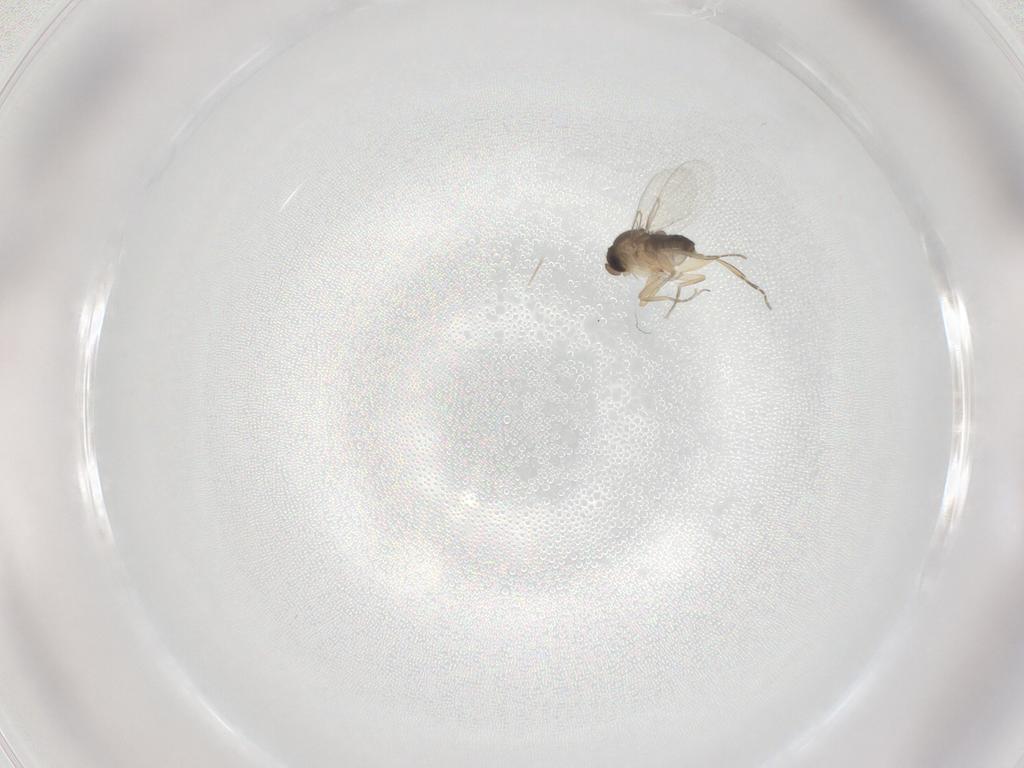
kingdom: Animalia
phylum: Arthropoda
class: Insecta
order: Diptera
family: Phoridae
